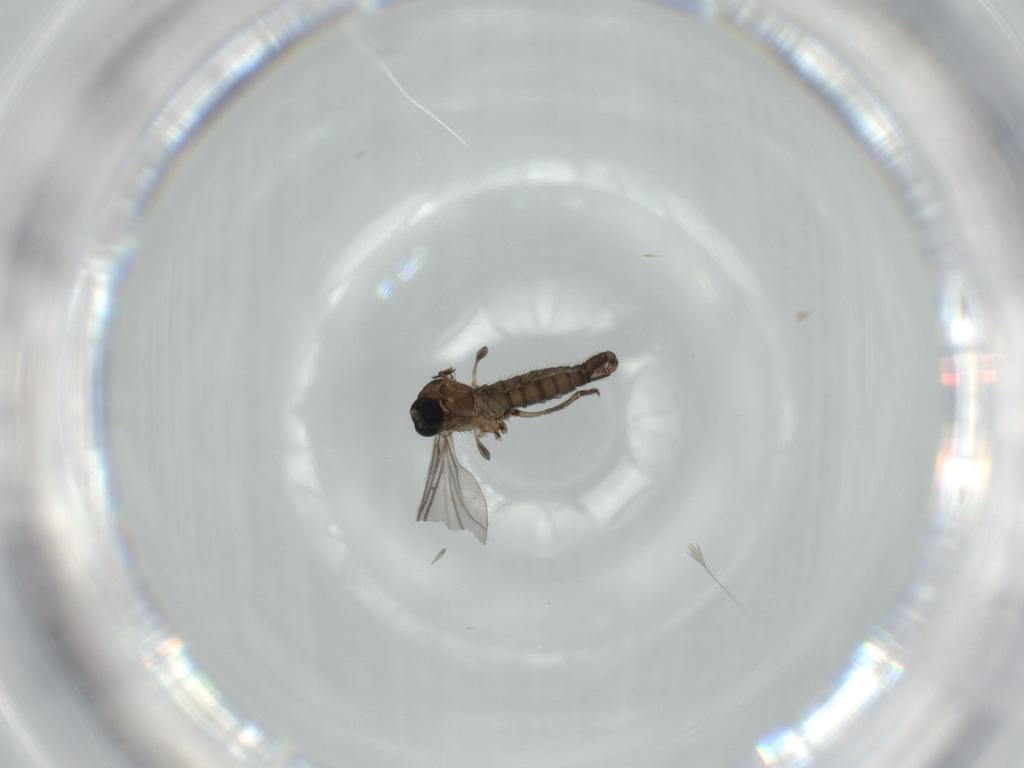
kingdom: Animalia
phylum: Arthropoda
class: Insecta
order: Diptera
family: Sciaridae
